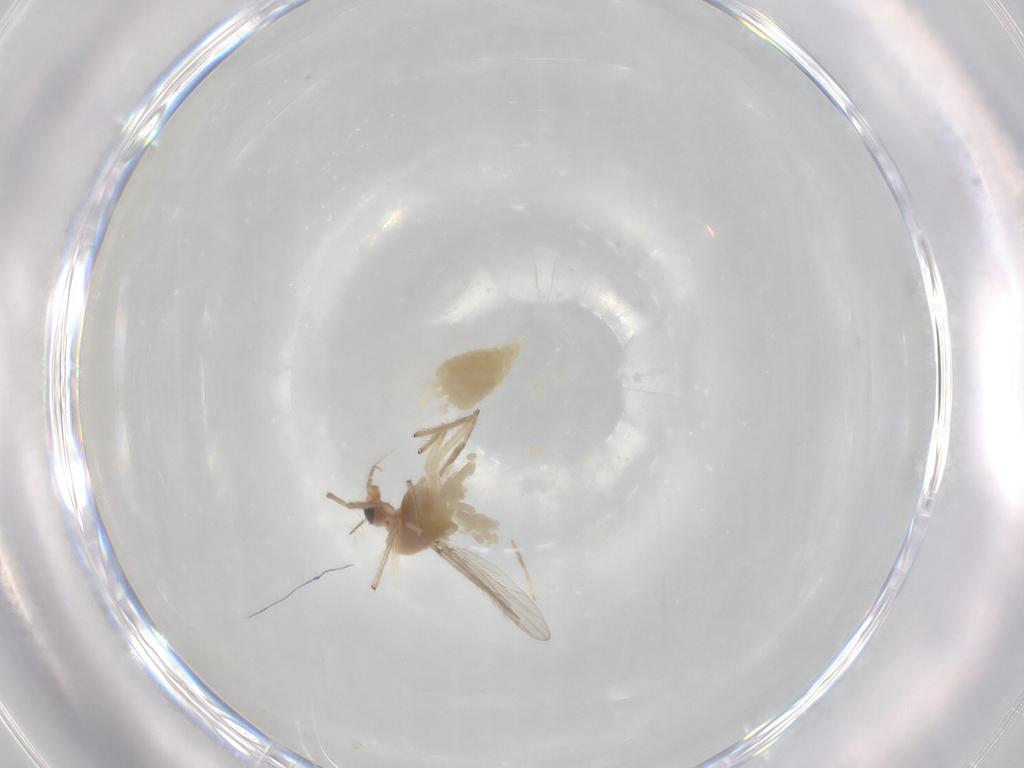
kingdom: Animalia
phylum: Arthropoda
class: Insecta
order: Diptera
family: Chironomidae
